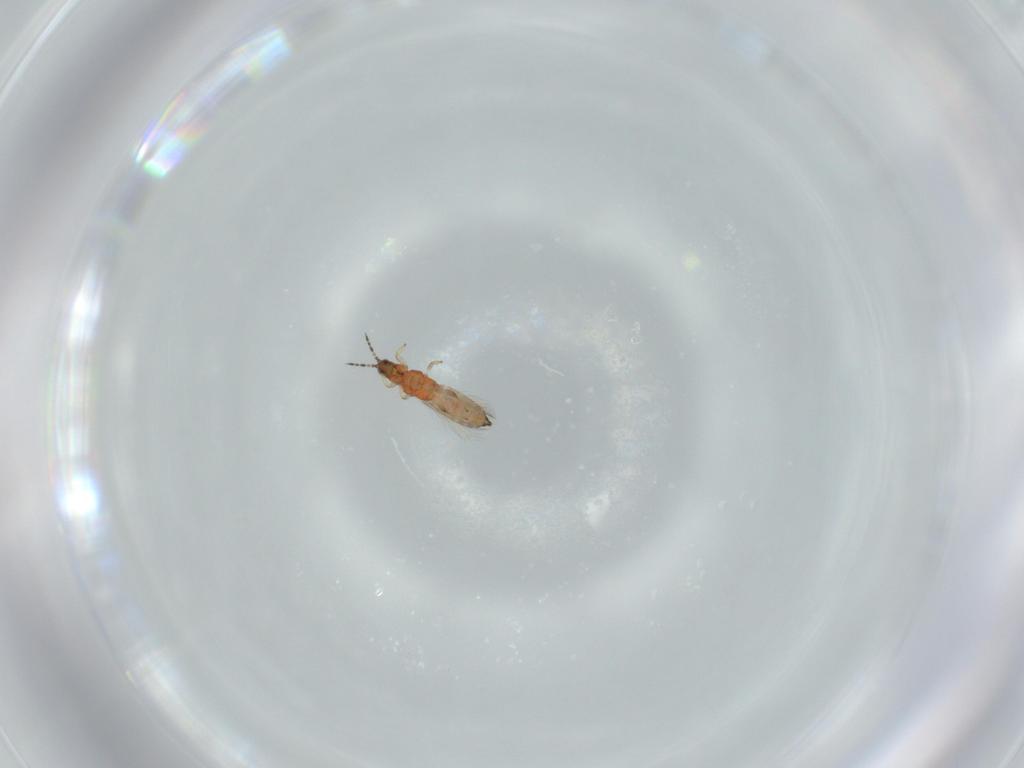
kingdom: Animalia
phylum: Arthropoda
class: Insecta
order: Thysanoptera
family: Thripidae
